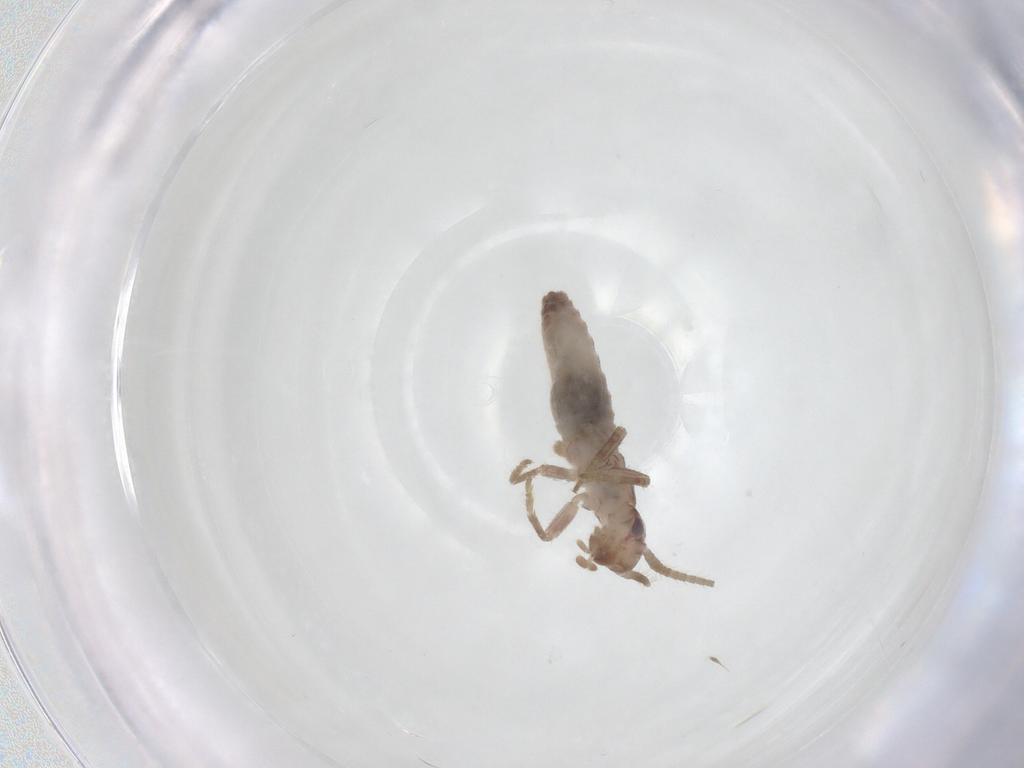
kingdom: Animalia
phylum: Arthropoda
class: Insecta
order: Orthoptera
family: Mogoplistidae
